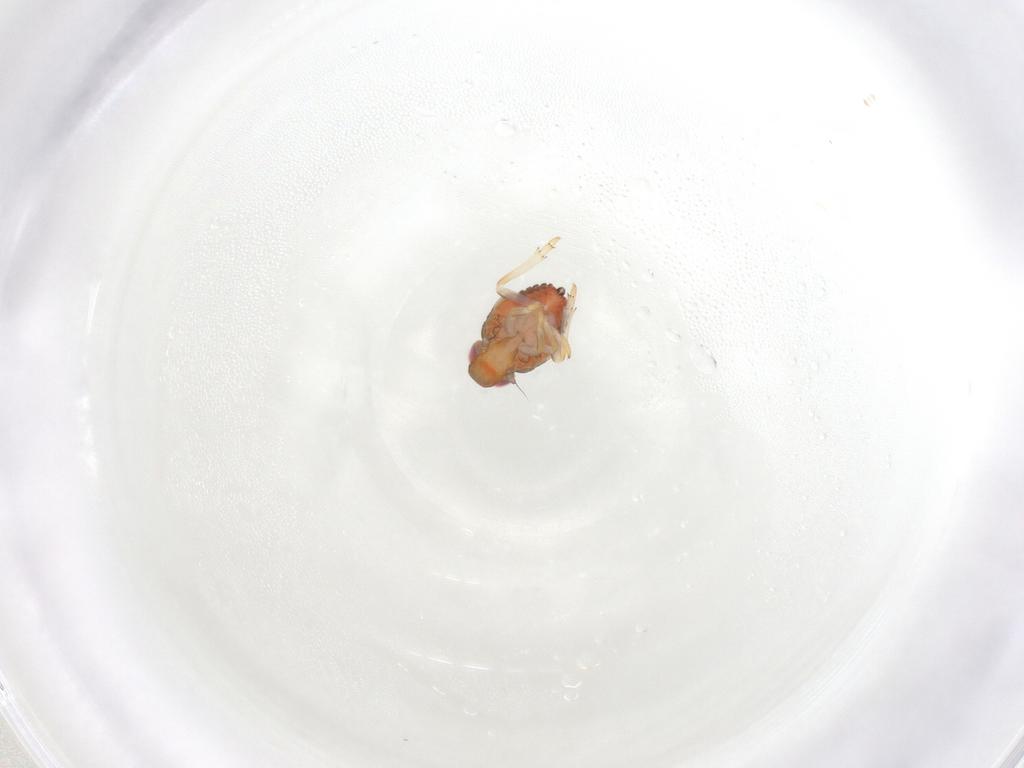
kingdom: Animalia
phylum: Arthropoda
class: Insecta
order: Hemiptera
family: Issidae
